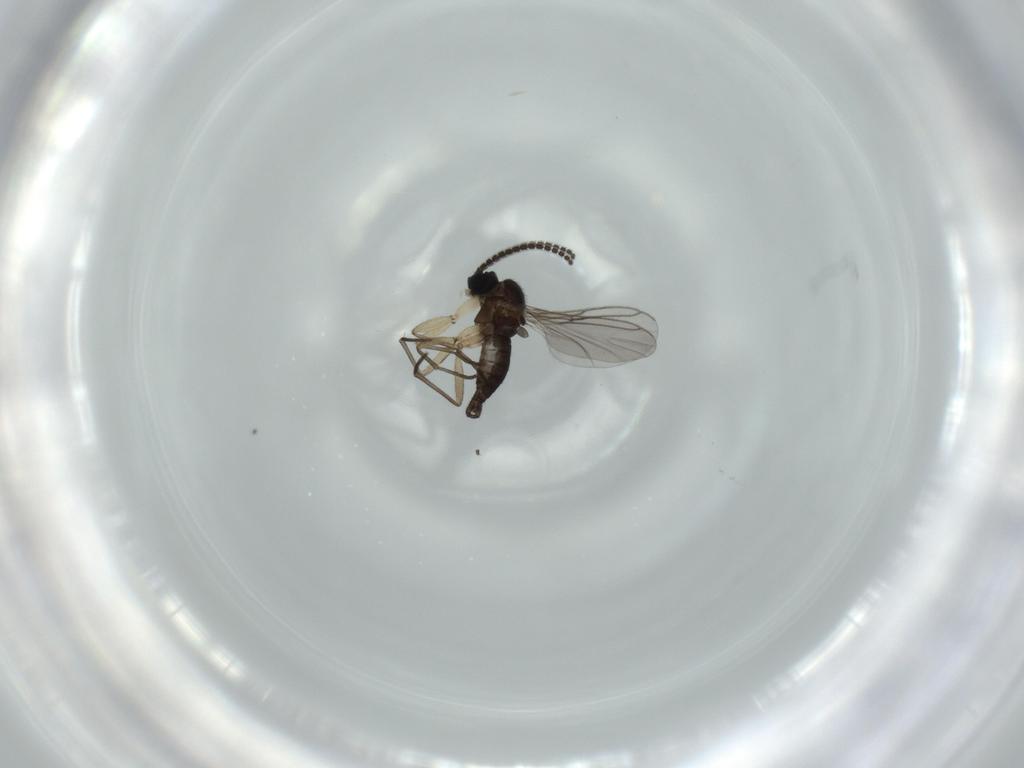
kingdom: Animalia
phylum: Arthropoda
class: Insecta
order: Diptera
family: Sciaridae
